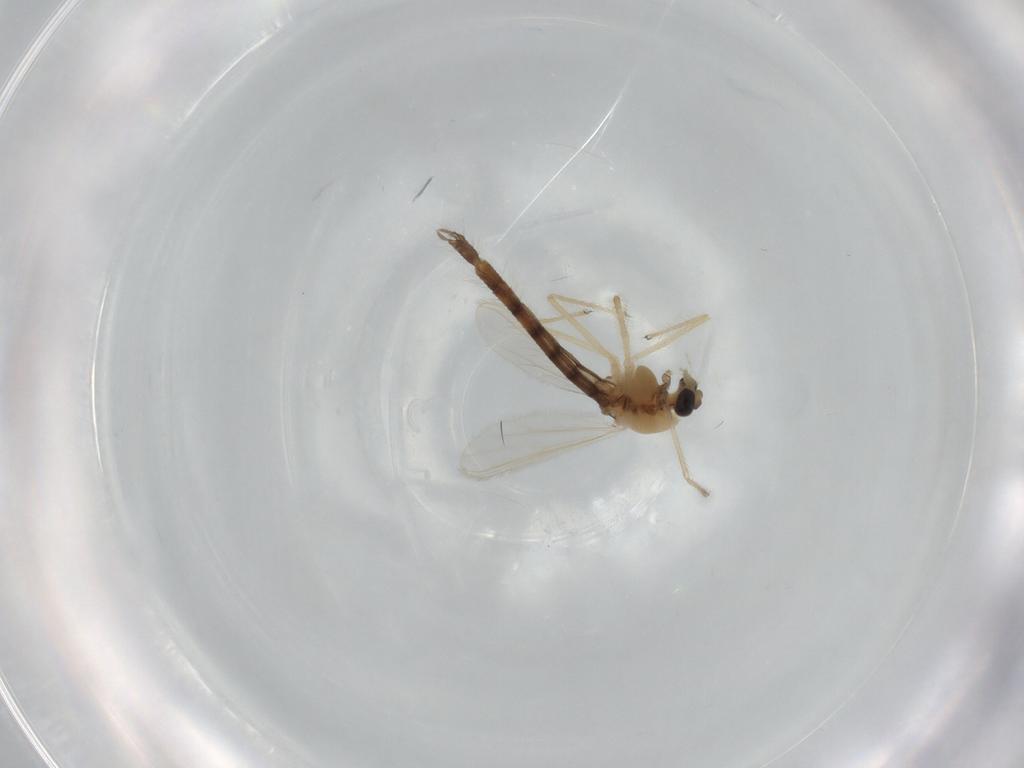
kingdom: Animalia
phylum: Arthropoda
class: Insecta
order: Diptera
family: Chironomidae
